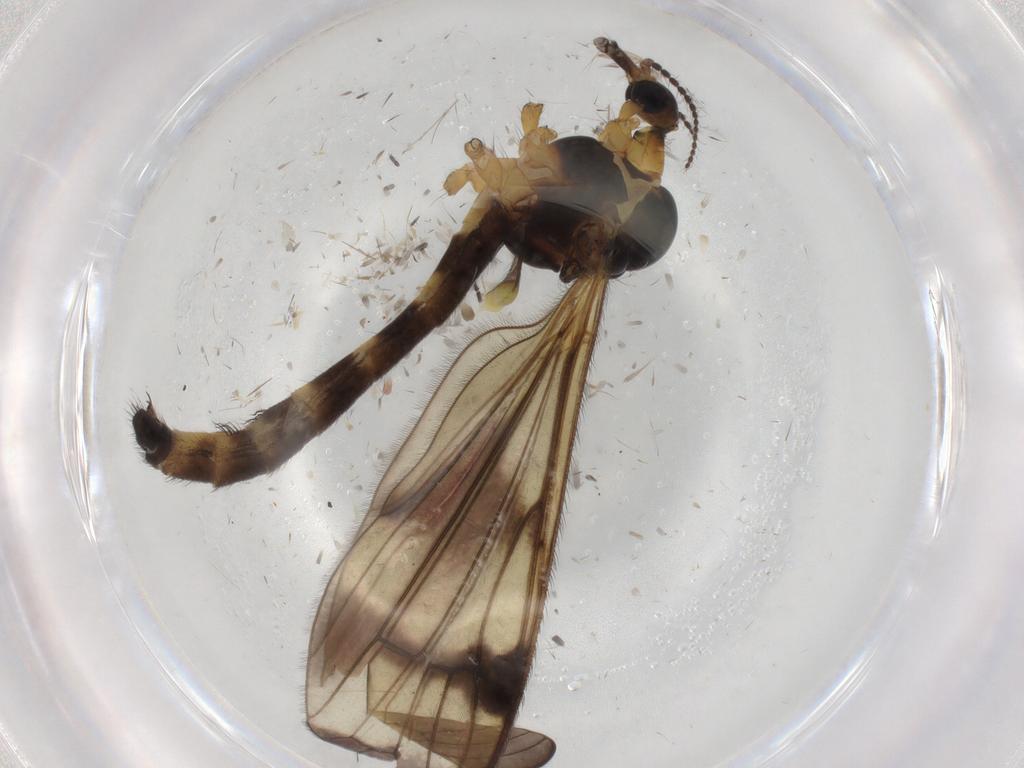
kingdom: Animalia
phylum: Arthropoda
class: Insecta
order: Diptera
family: Limoniidae
